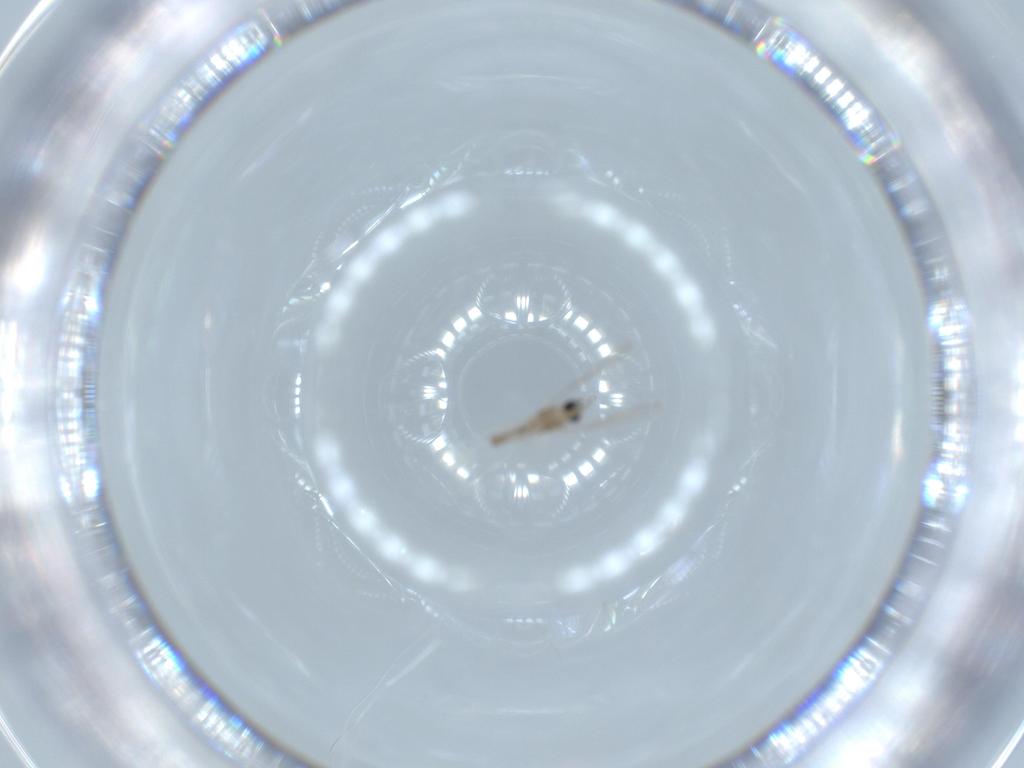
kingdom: Animalia
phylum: Arthropoda
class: Insecta
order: Diptera
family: Cecidomyiidae
